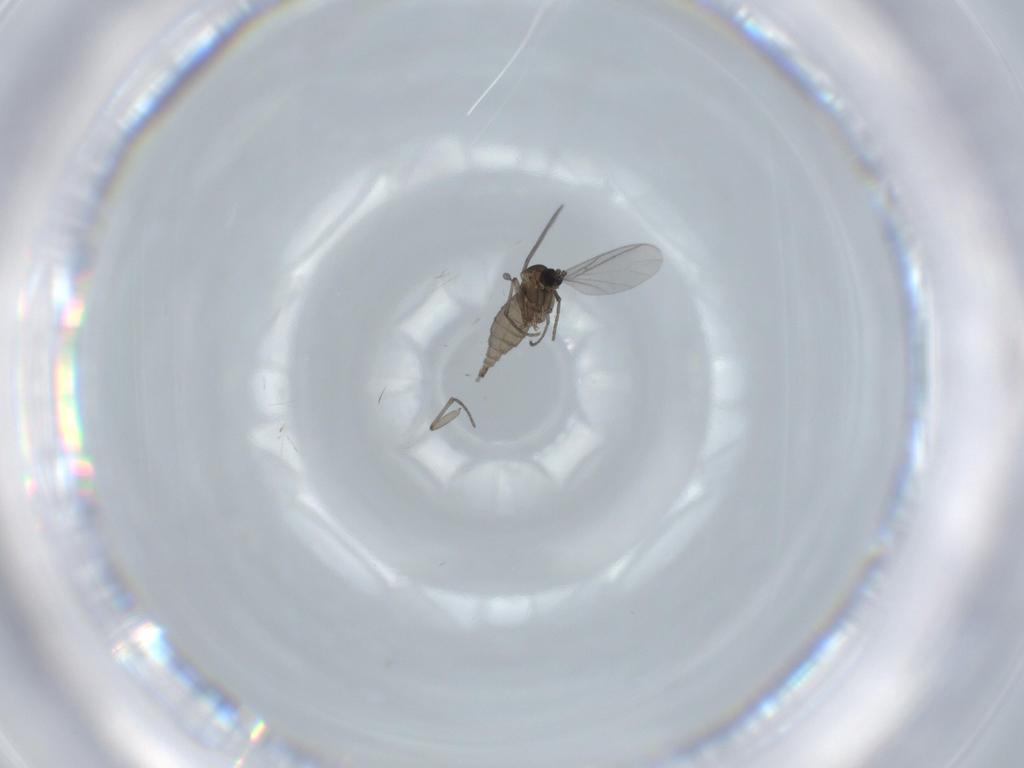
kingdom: Animalia
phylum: Arthropoda
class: Insecta
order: Diptera
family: Sciaridae
